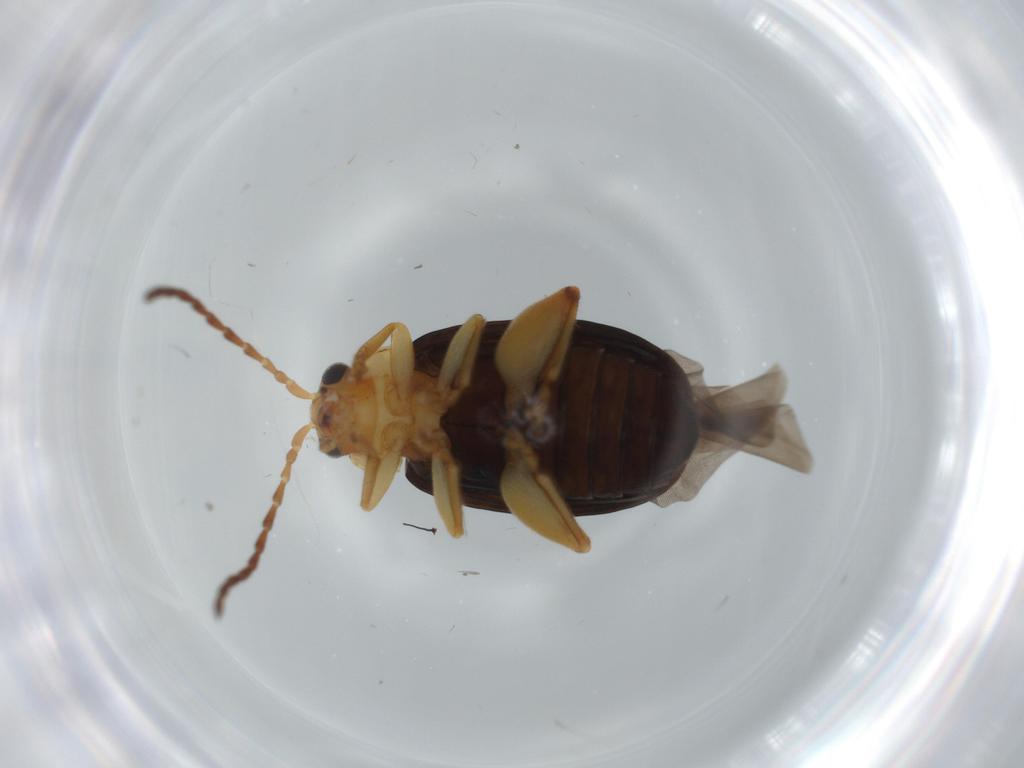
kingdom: Animalia
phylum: Arthropoda
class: Insecta
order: Coleoptera
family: Chrysomelidae
